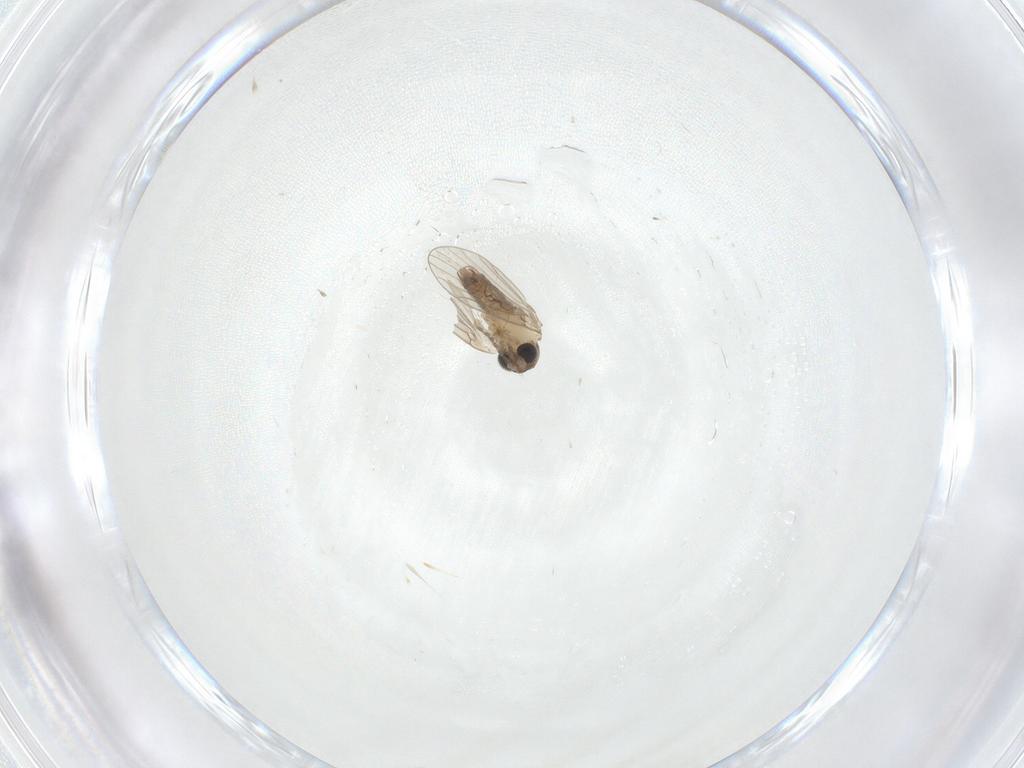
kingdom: Animalia
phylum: Arthropoda
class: Insecta
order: Diptera
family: Psychodidae
